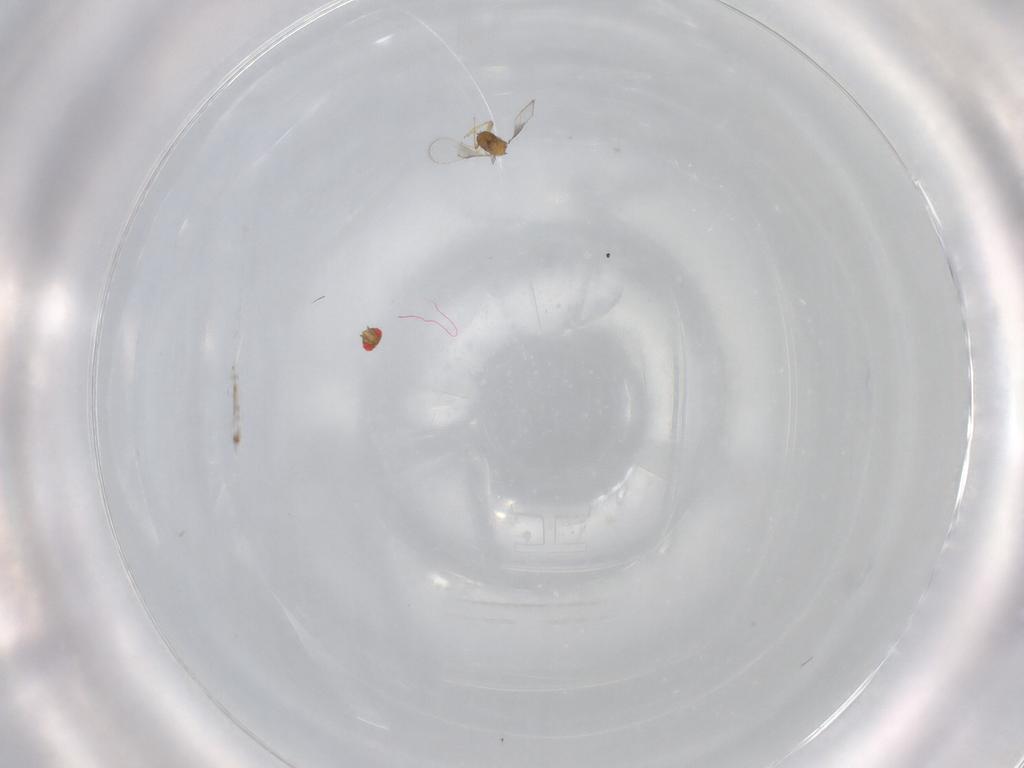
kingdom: Animalia
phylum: Arthropoda
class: Insecta
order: Hymenoptera
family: Trichogrammatidae
